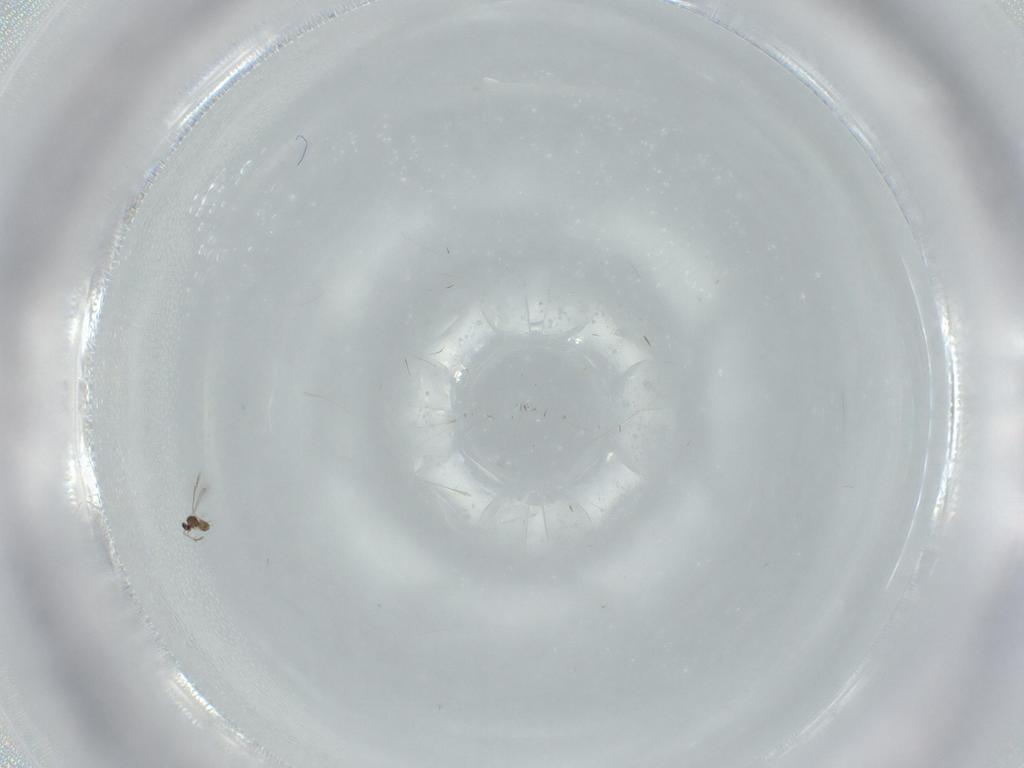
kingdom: Animalia
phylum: Arthropoda
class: Insecta
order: Hymenoptera
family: Mymaridae
